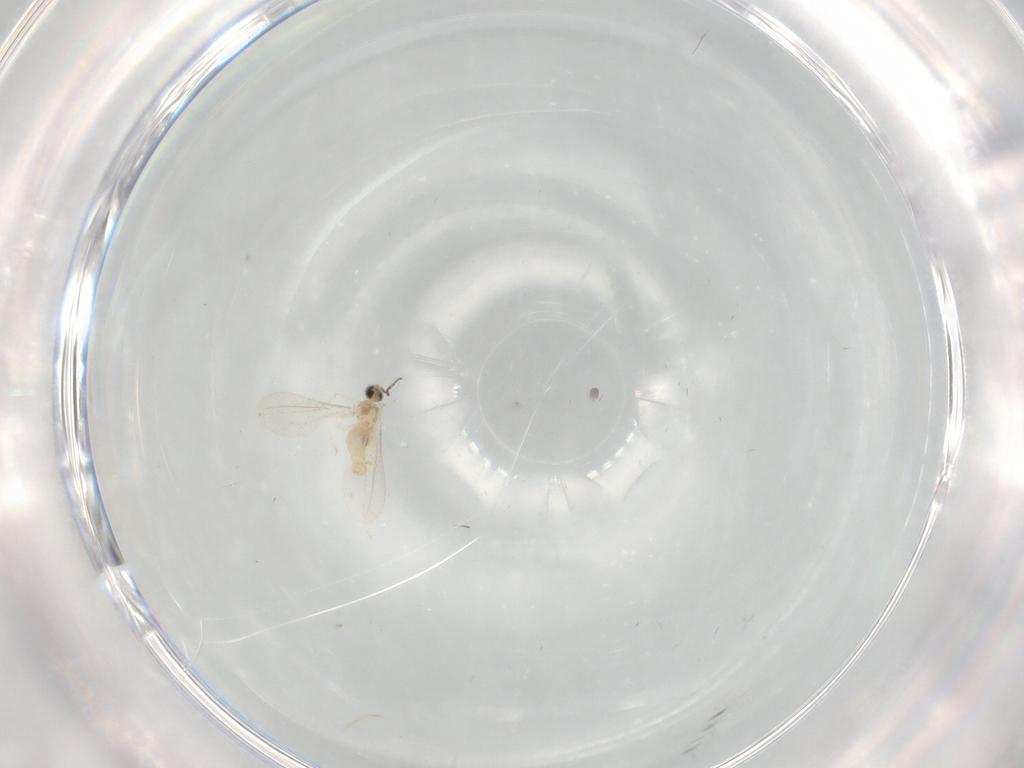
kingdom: Animalia
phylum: Arthropoda
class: Insecta
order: Diptera
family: Cecidomyiidae
